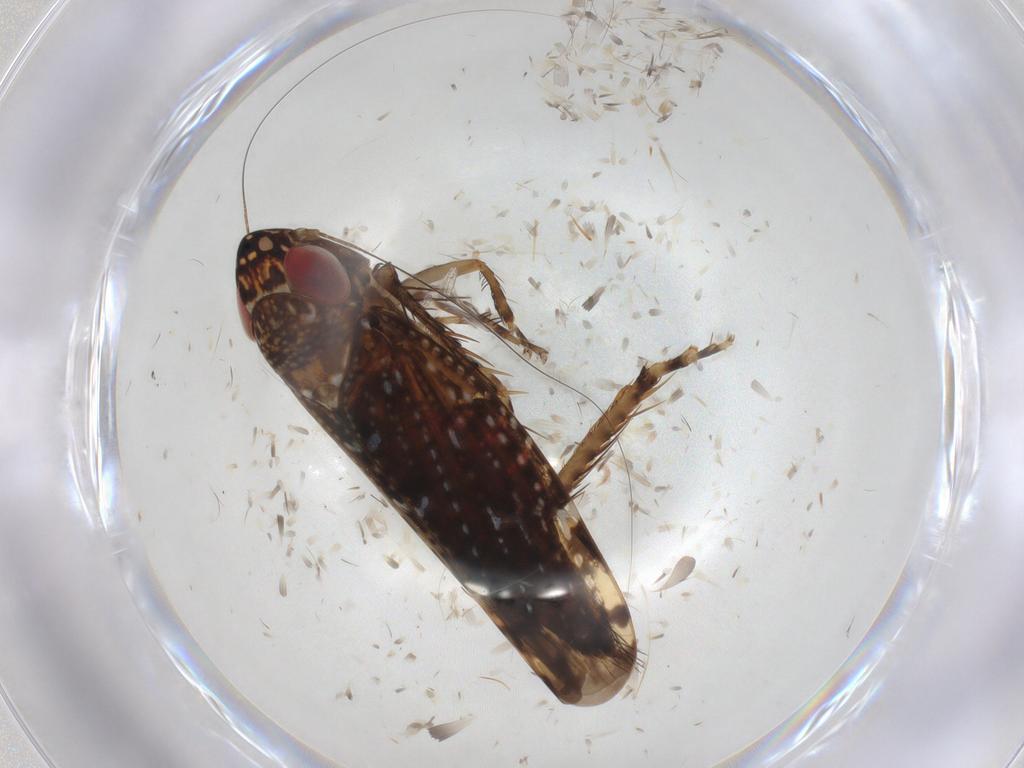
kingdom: Animalia
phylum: Arthropoda
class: Insecta
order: Hemiptera
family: Cicadellidae
